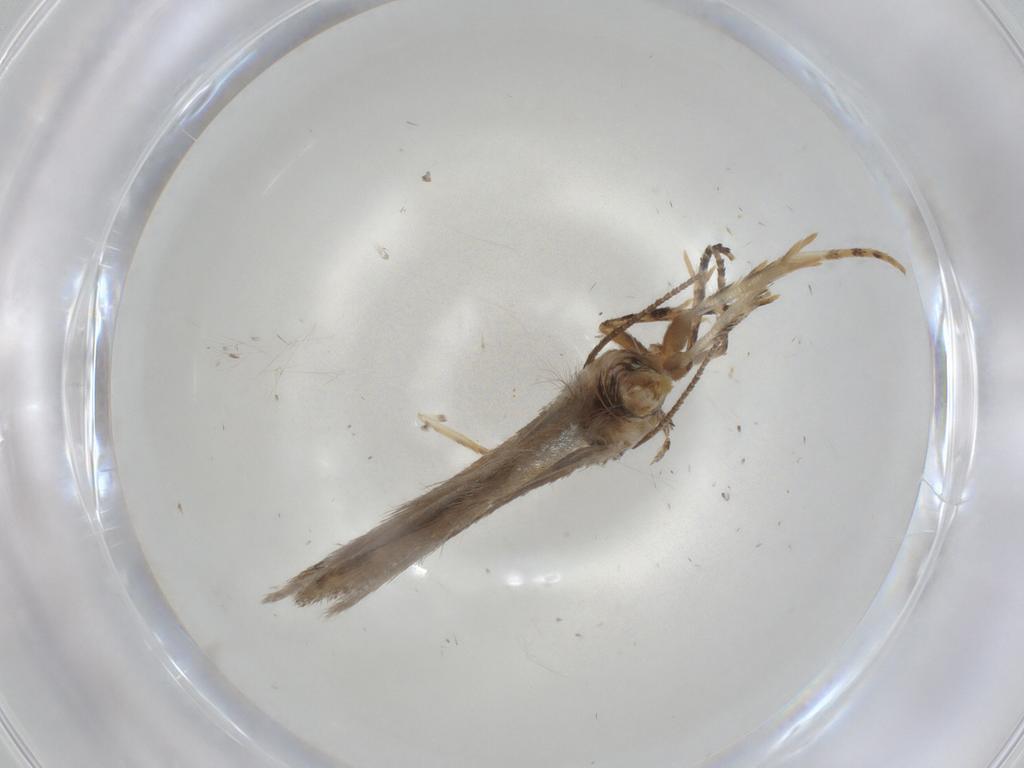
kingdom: Animalia
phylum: Arthropoda
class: Insecta
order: Lepidoptera
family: Gelechiidae
